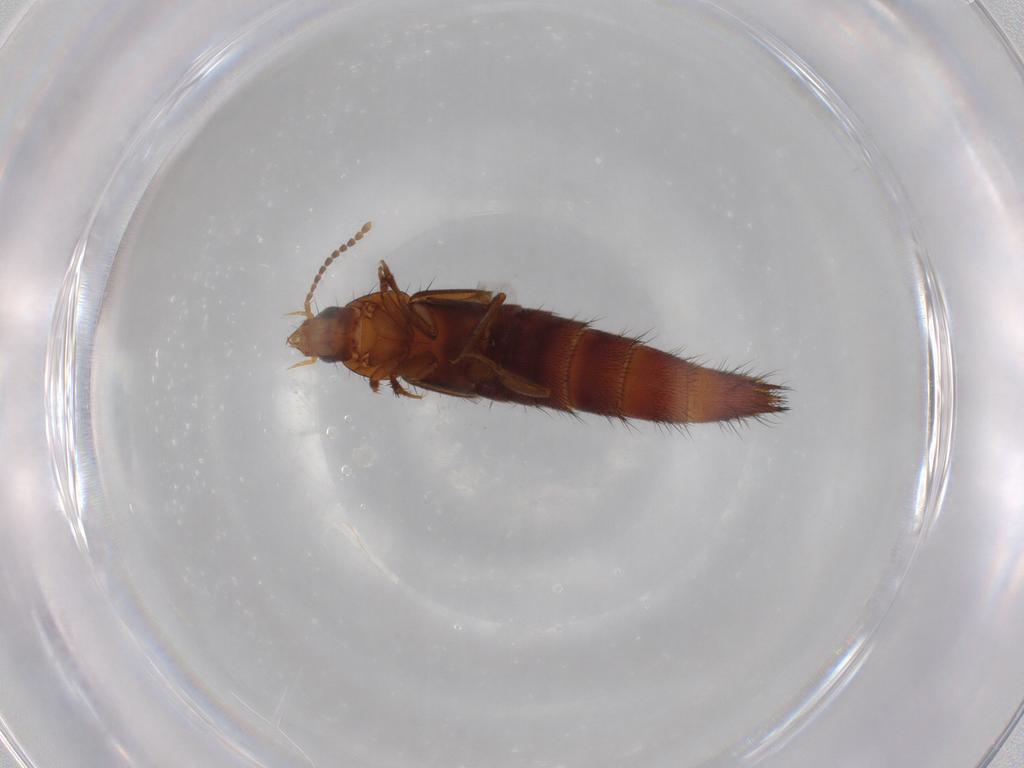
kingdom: Animalia
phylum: Arthropoda
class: Insecta
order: Coleoptera
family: Staphylinidae
